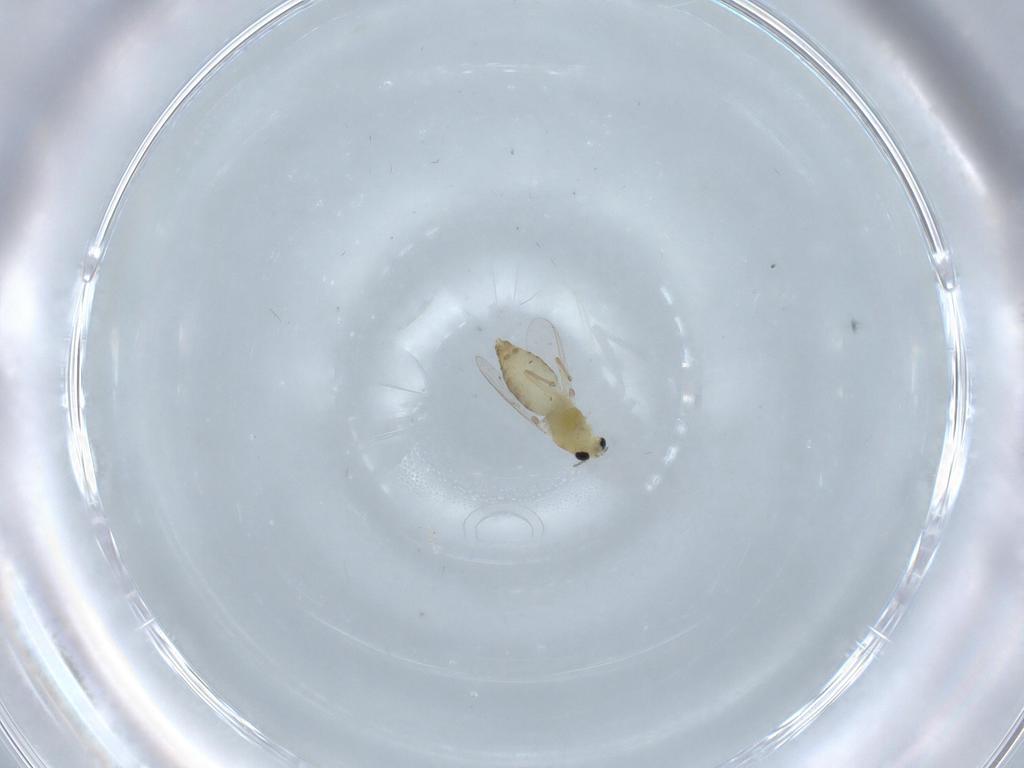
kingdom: Animalia
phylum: Arthropoda
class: Insecta
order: Diptera
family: Chironomidae
